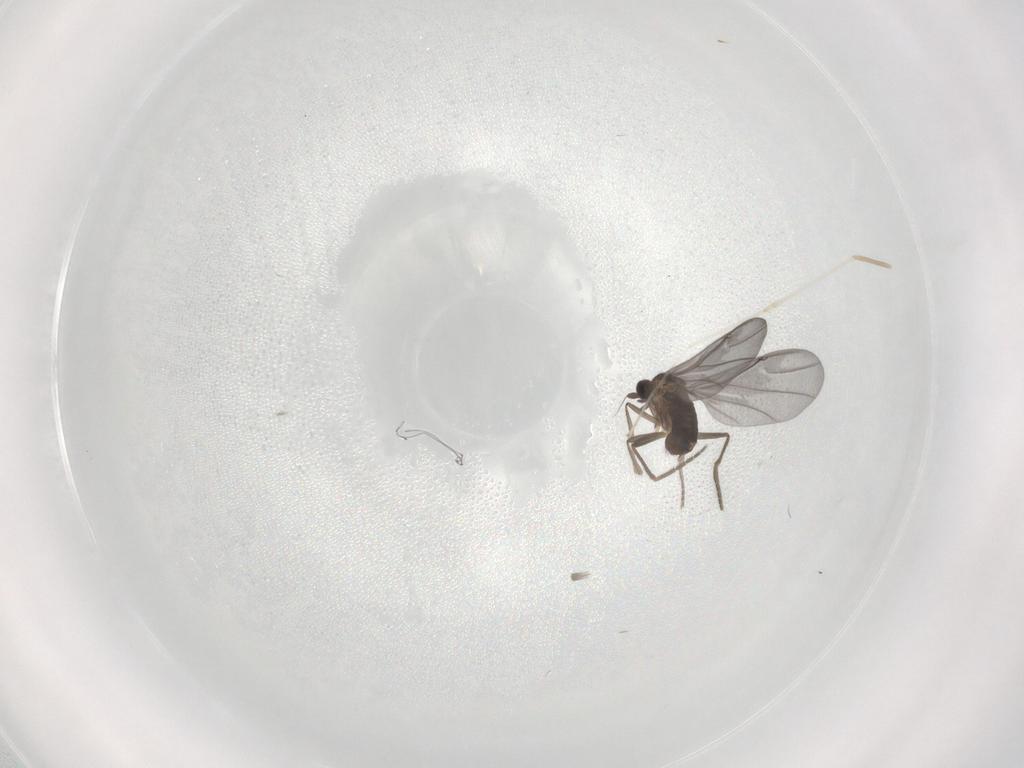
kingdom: Animalia
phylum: Arthropoda
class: Insecta
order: Diptera
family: Phoridae
